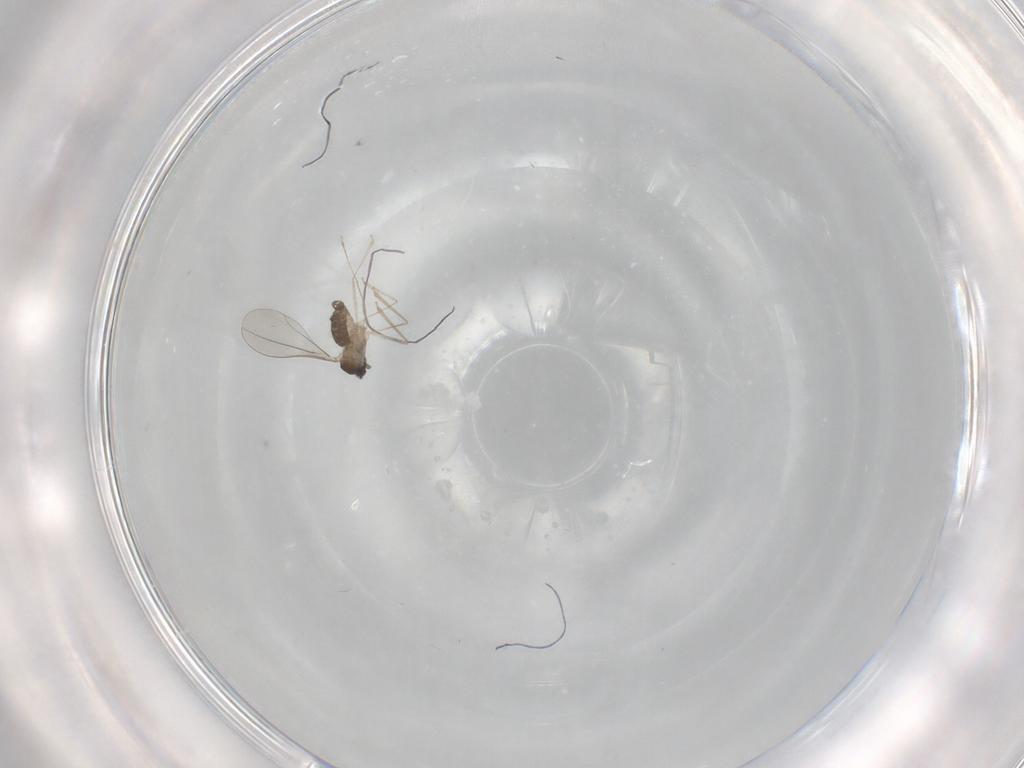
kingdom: Animalia
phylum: Arthropoda
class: Insecta
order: Diptera
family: Cecidomyiidae
